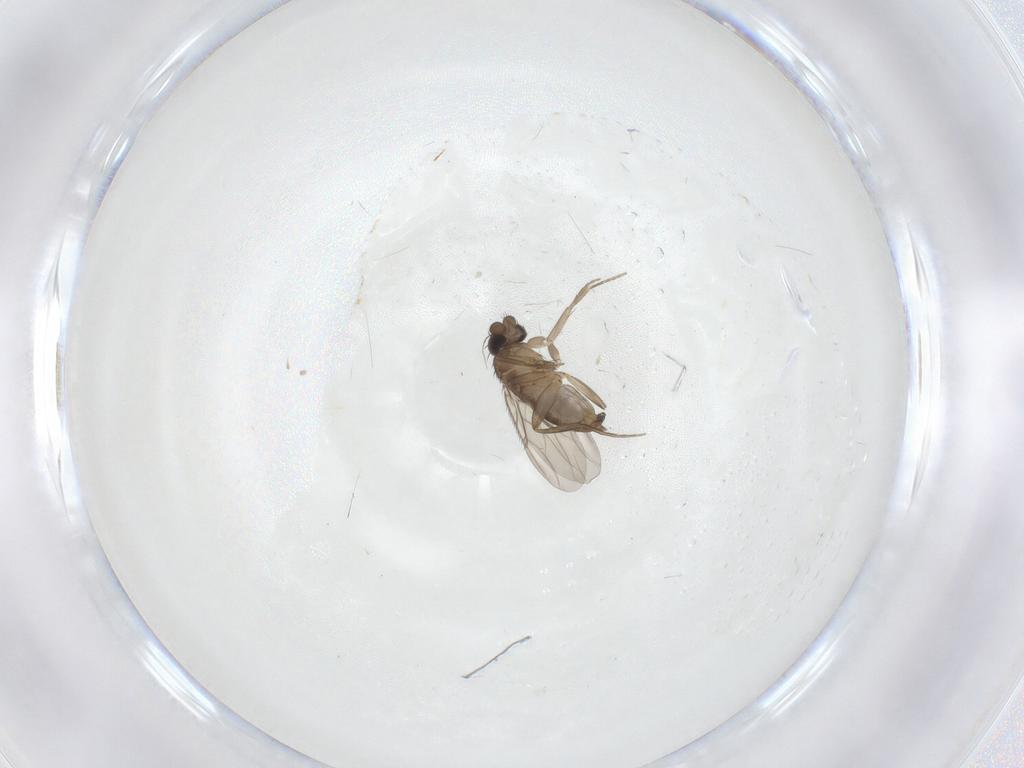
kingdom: Animalia
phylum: Arthropoda
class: Insecta
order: Diptera
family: Phoridae
